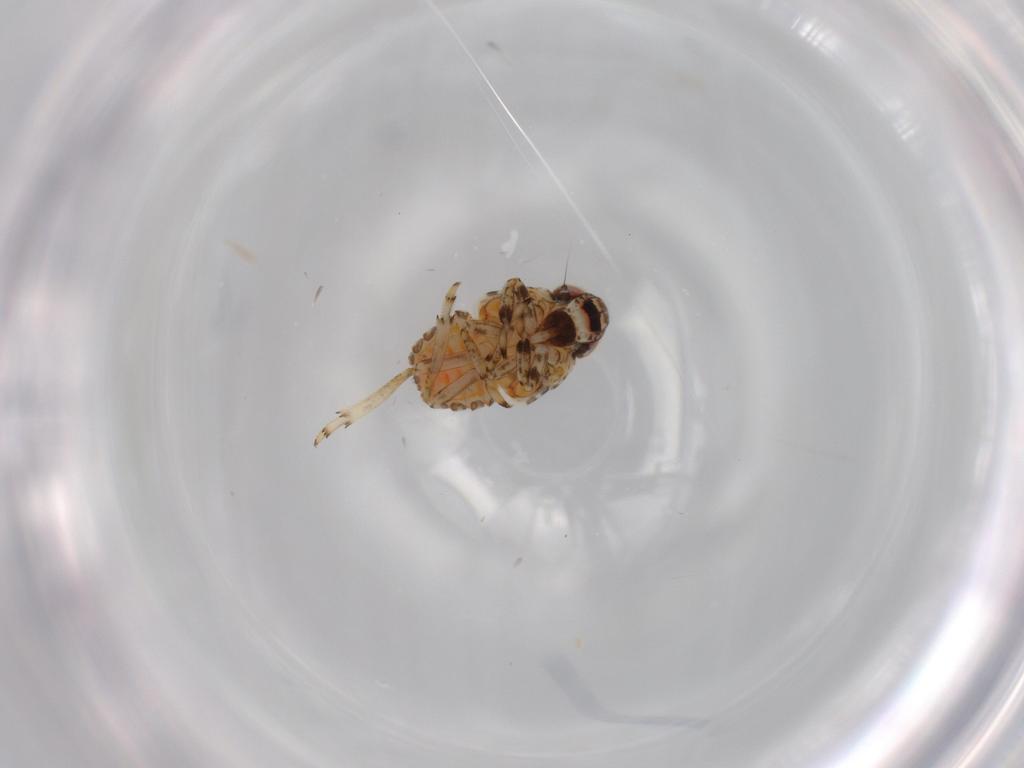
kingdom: Animalia
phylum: Arthropoda
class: Insecta
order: Hemiptera
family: Issidae
